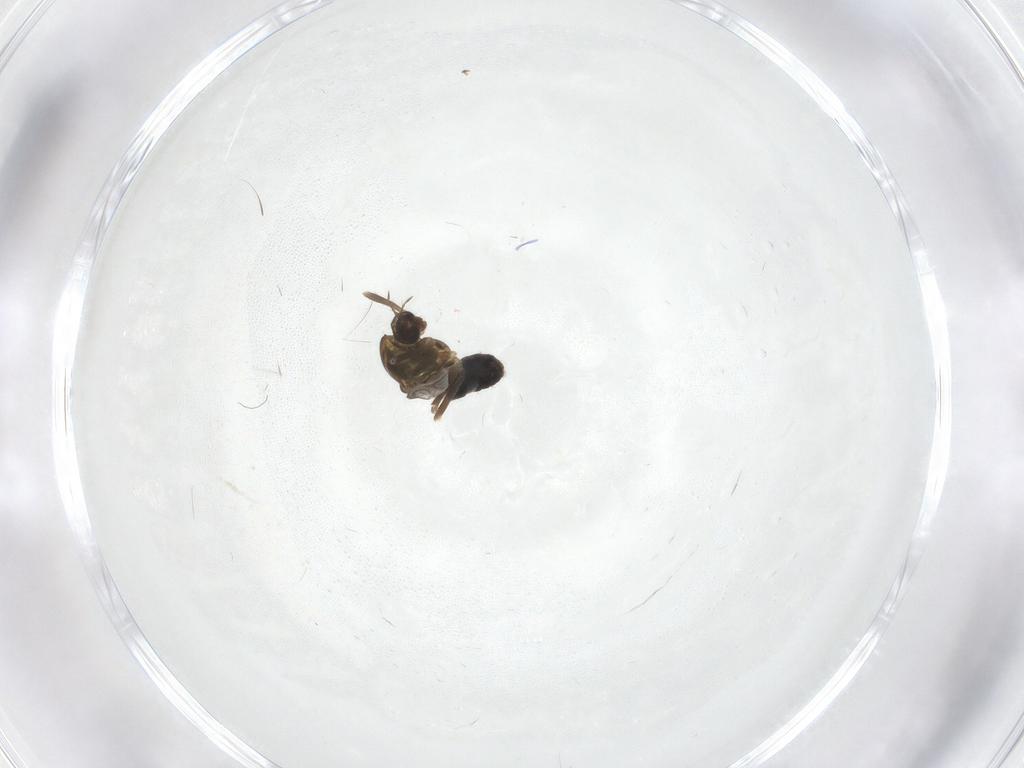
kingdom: Animalia
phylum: Arthropoda
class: Insecta
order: Diptera
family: Chironomidae
